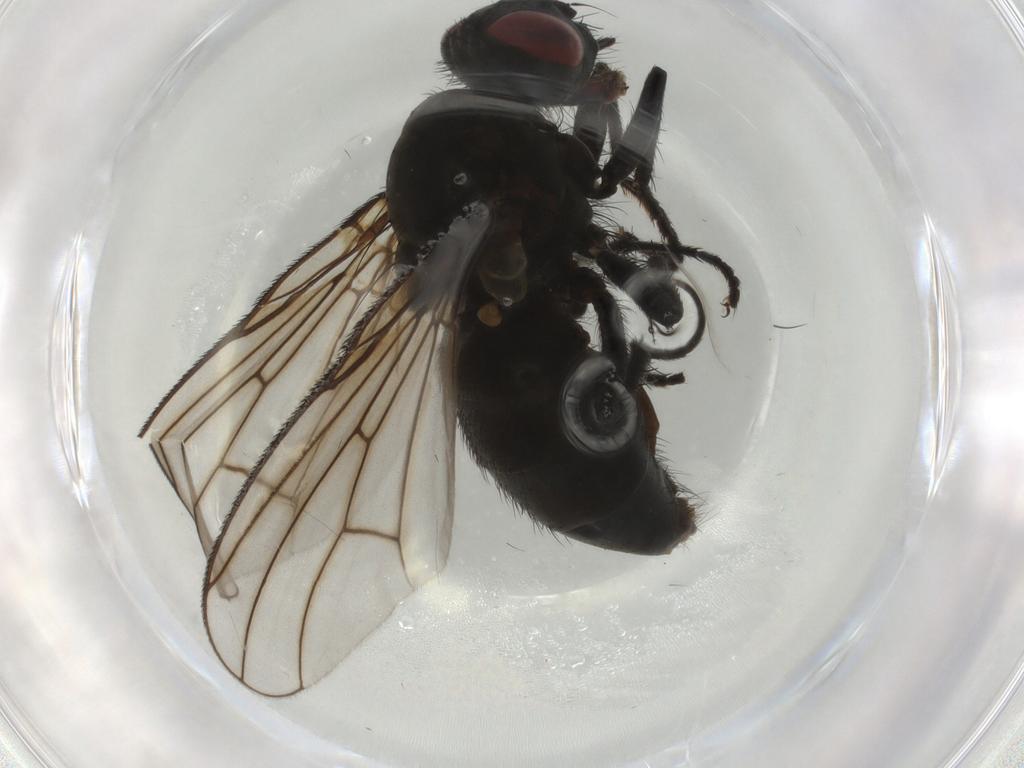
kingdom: Animalia
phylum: Arthropoda
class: Insecta
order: Diptera
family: Muscidae
